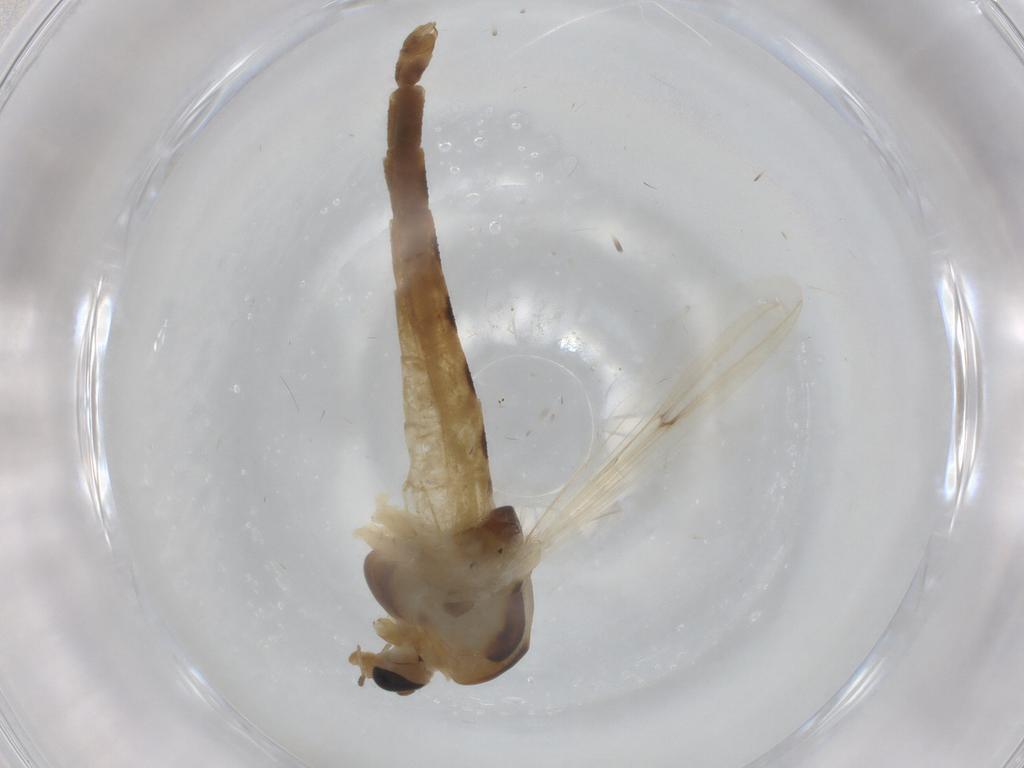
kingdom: Animalia
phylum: Arthropoda
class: Insecta
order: Diptera
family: Chironomidae
